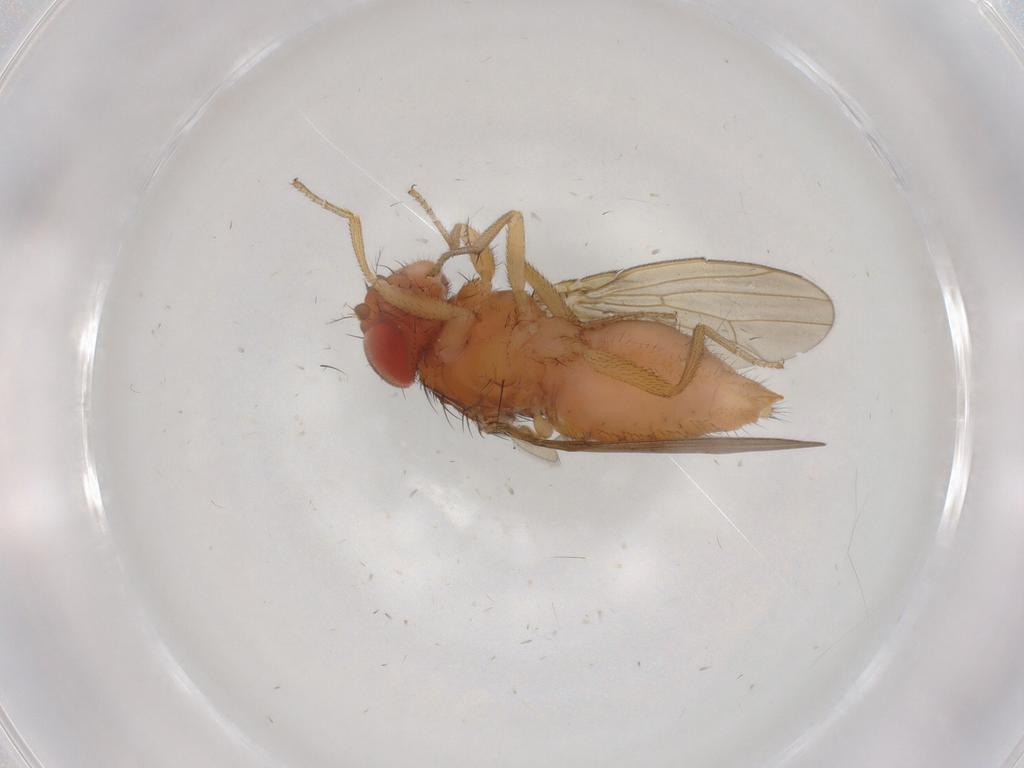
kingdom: Animalia
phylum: Arthropoda
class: Insecta
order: Diptera
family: Drosophilidae
